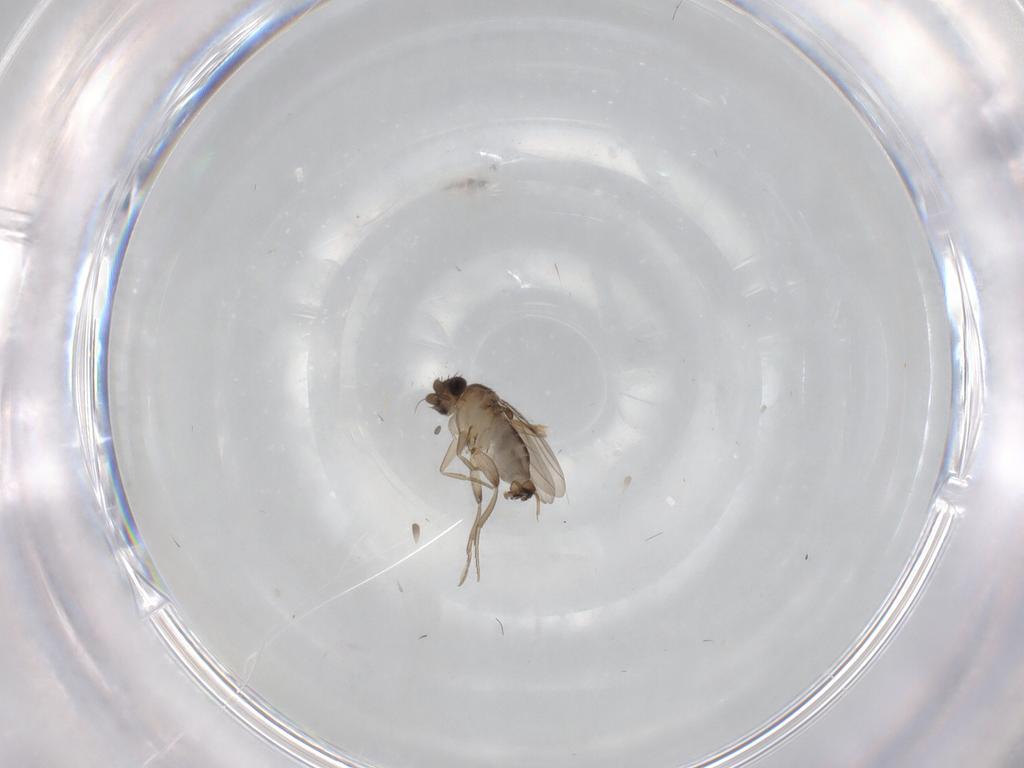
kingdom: Animalia
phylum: Arthropoda
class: Insecta
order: Diptera
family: Phoridae
